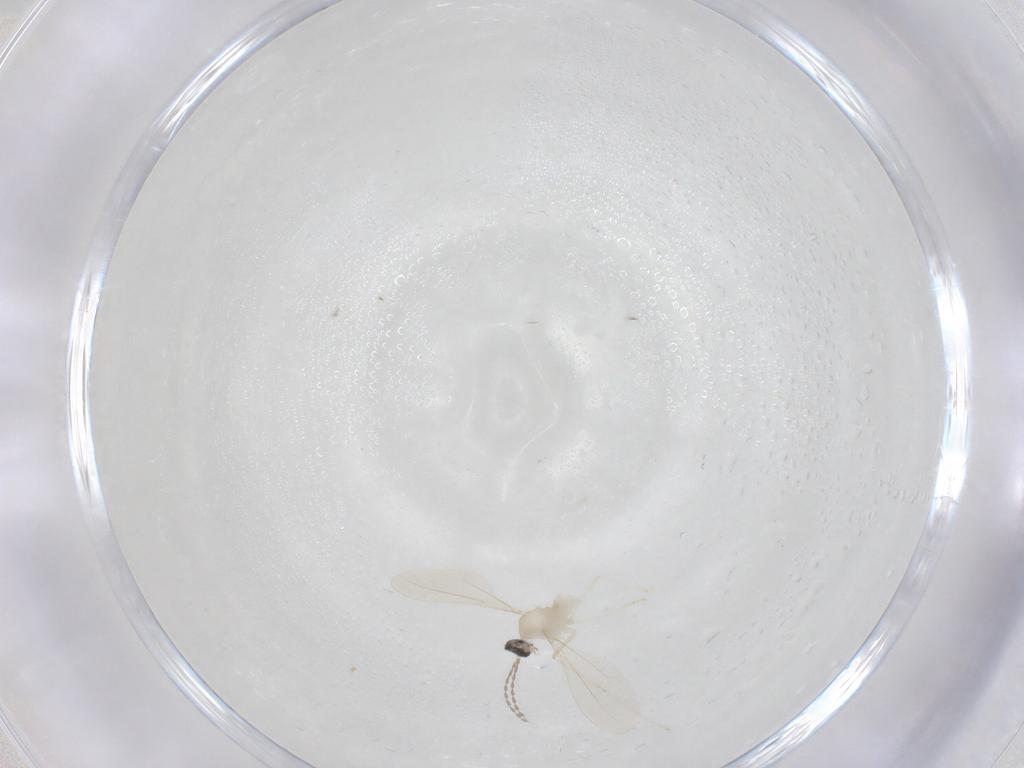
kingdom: Animalia
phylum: Arthropoda
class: Insecta
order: Diptera
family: Cecidomyiidae
